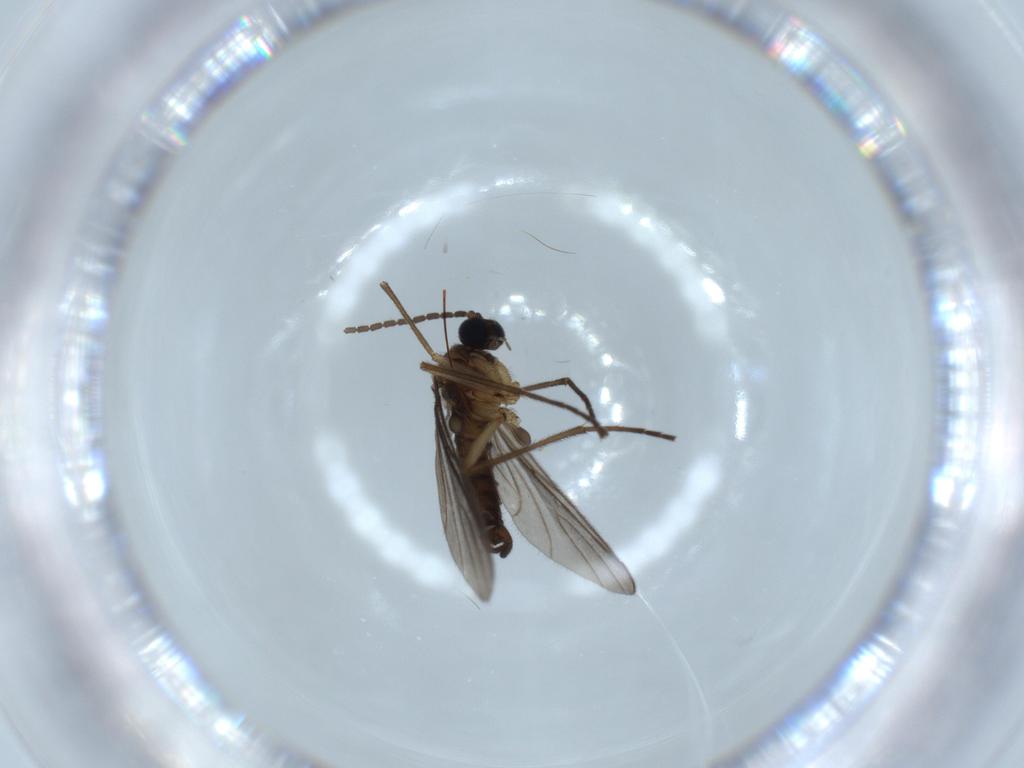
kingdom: Animalia
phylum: Arthropoda
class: Insecta
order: Diptera
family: Sciaridae
